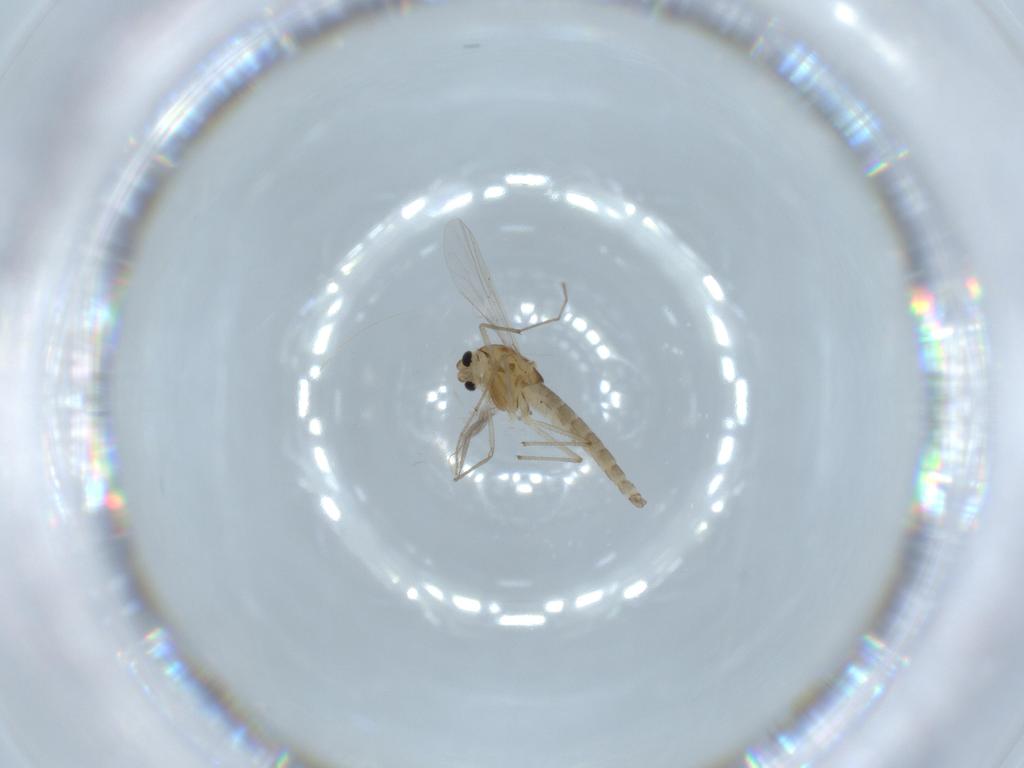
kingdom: Animalia
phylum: Arthropoda
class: Insecta
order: Diptera
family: Chironomidae
